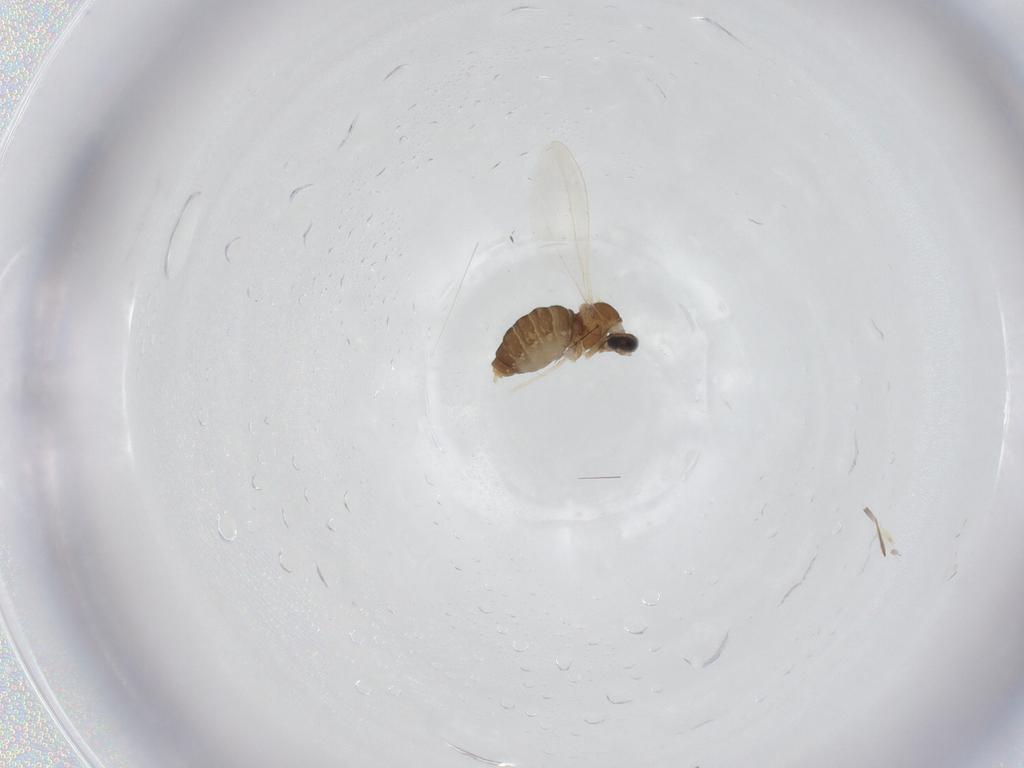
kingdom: Animalia
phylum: Arthropoda
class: Insecta
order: Diptera
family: Cecidomyiidae
